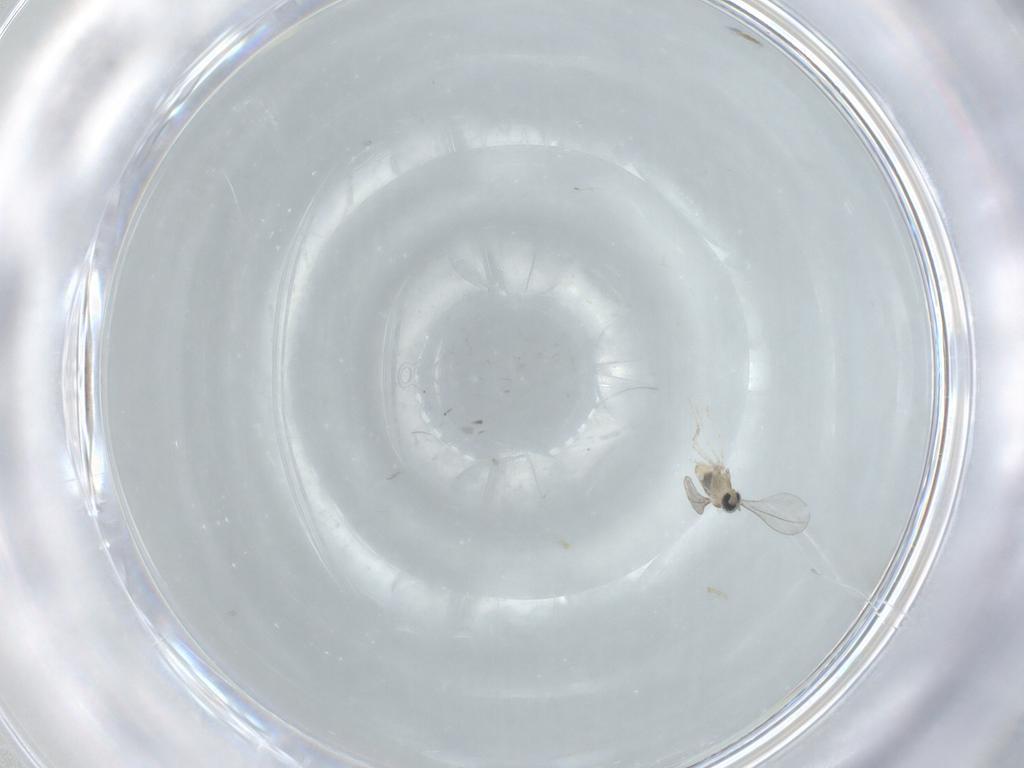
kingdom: Animalia
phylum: Arthropoda
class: Insecta
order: Diptera
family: Cecidomyiidae
